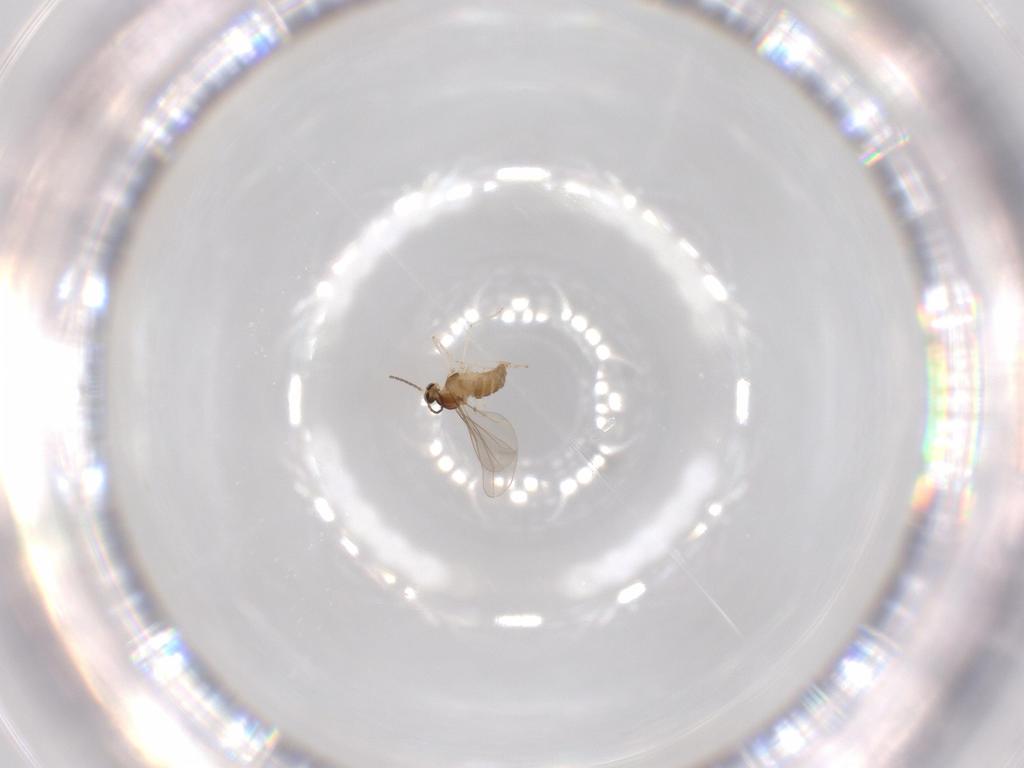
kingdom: Animalia
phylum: Arthropoda
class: Insecta
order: Diptera
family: Cecidomyiidae
